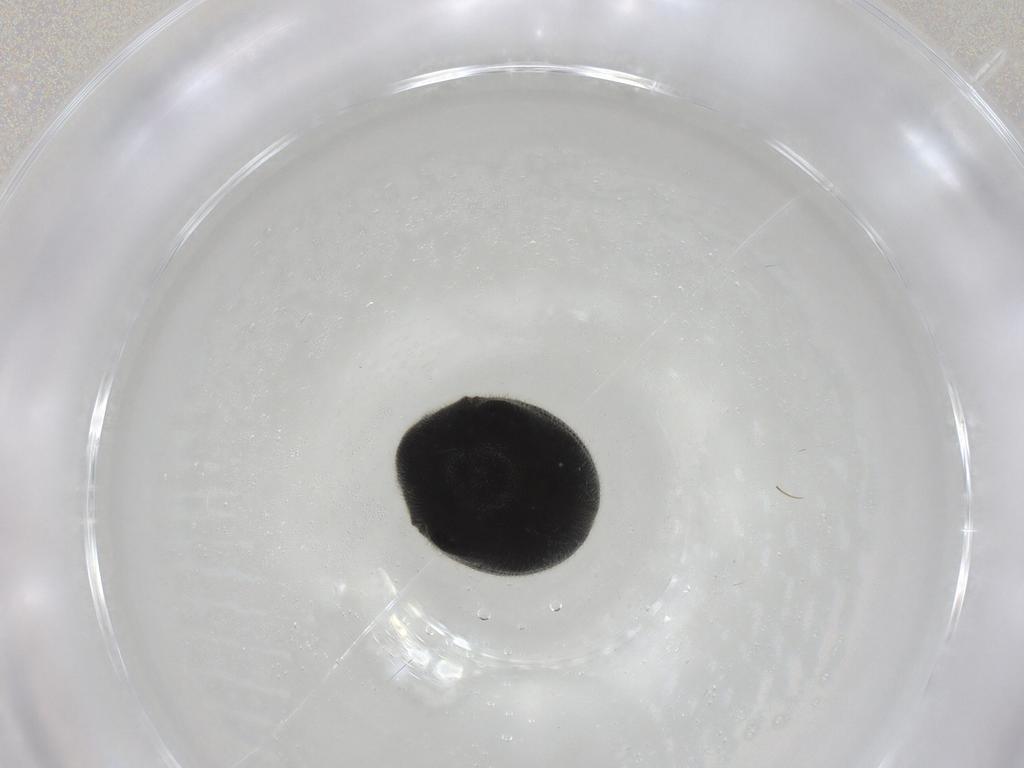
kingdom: Animalia
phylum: Arthropoda
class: Insecta
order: Coleoptera
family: Ptinidae
